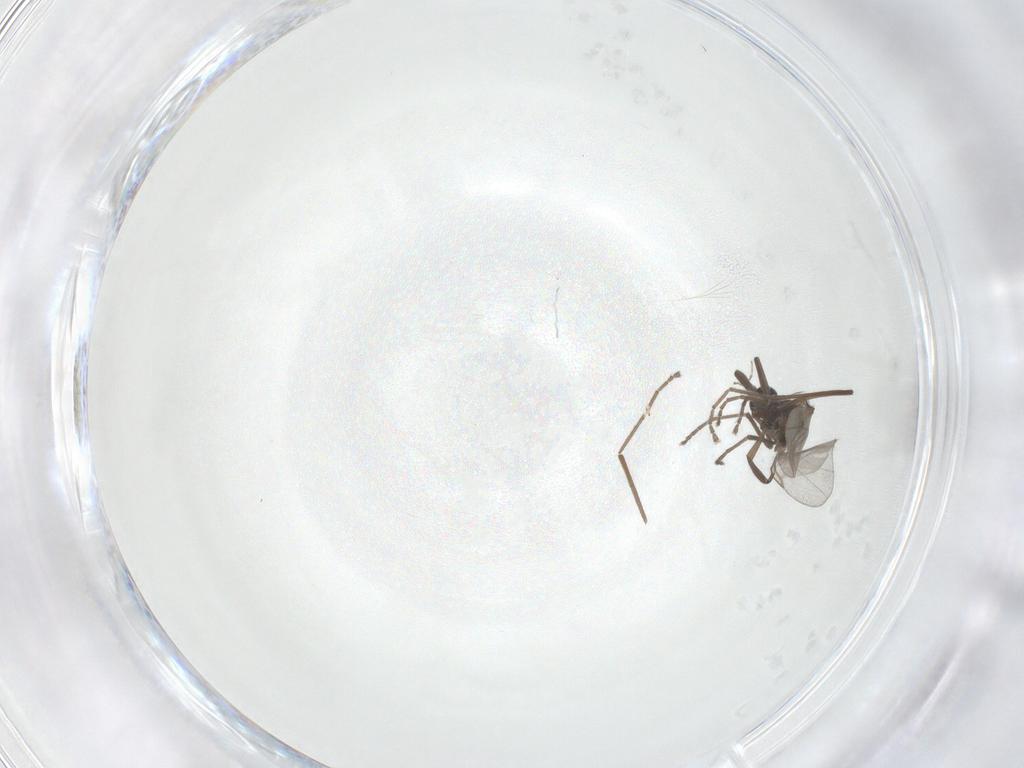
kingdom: Animalia
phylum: Arthropoda
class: Insecta
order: Diptera
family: Cecidomyiidae
